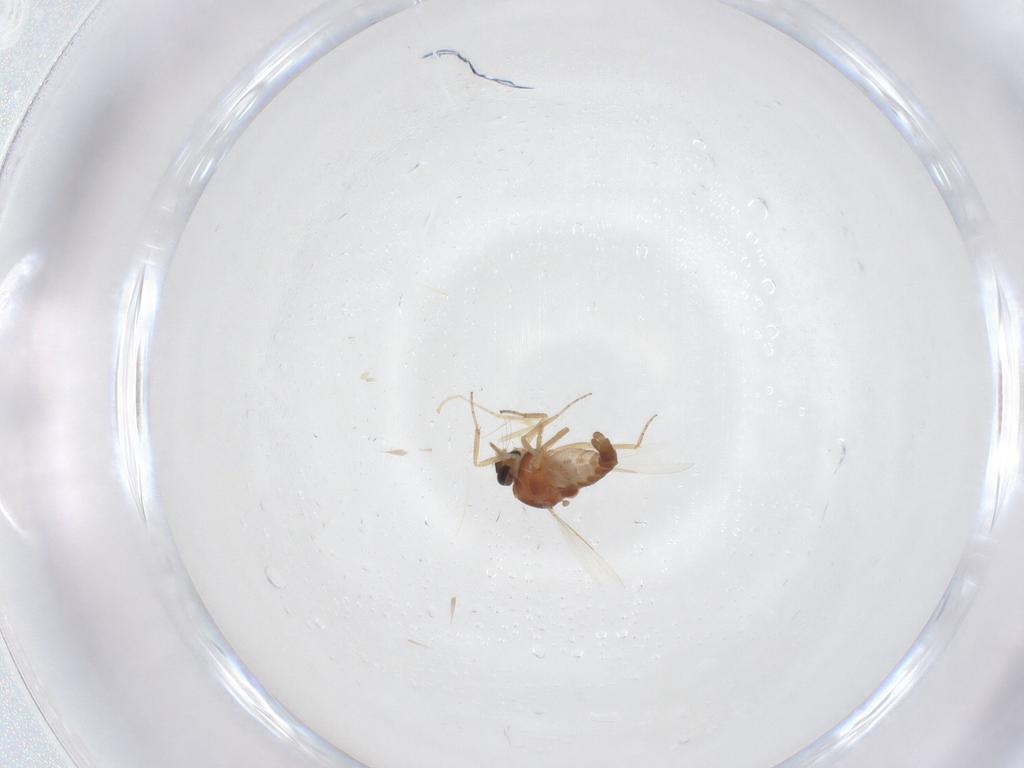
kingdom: Animalia
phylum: Arthropoda
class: Insecta
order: Diptera
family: Ceratopogonidae
